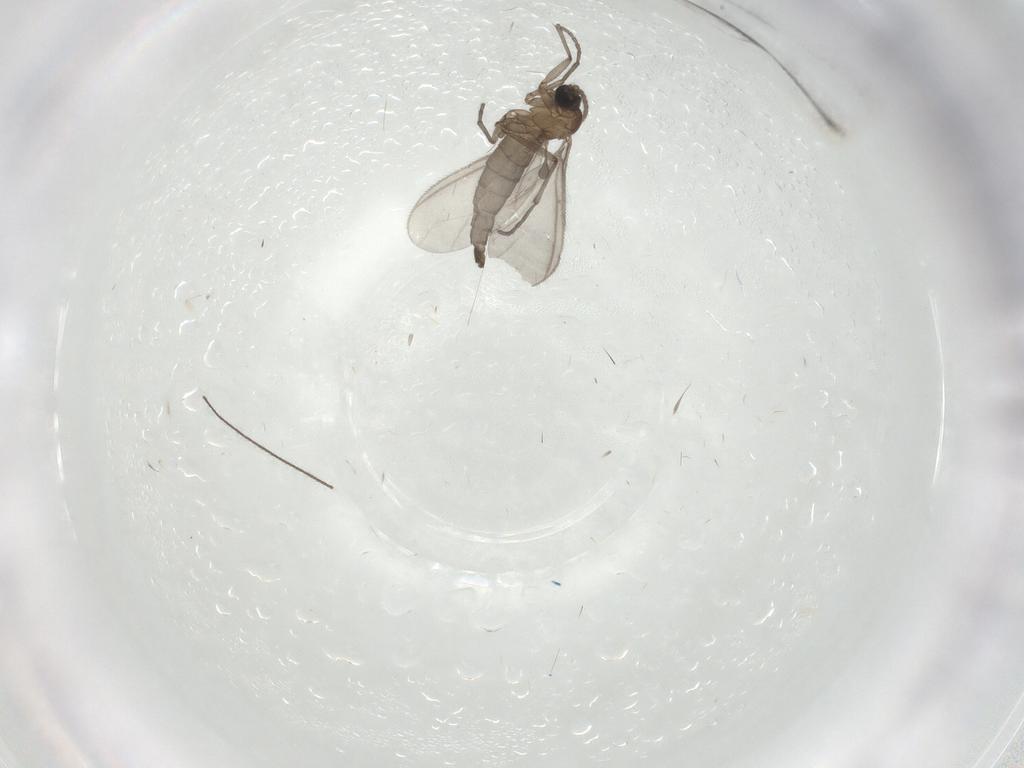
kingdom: Animalia
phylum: Arthropoda
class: Insecta
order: Diptera
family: Sciaridae
